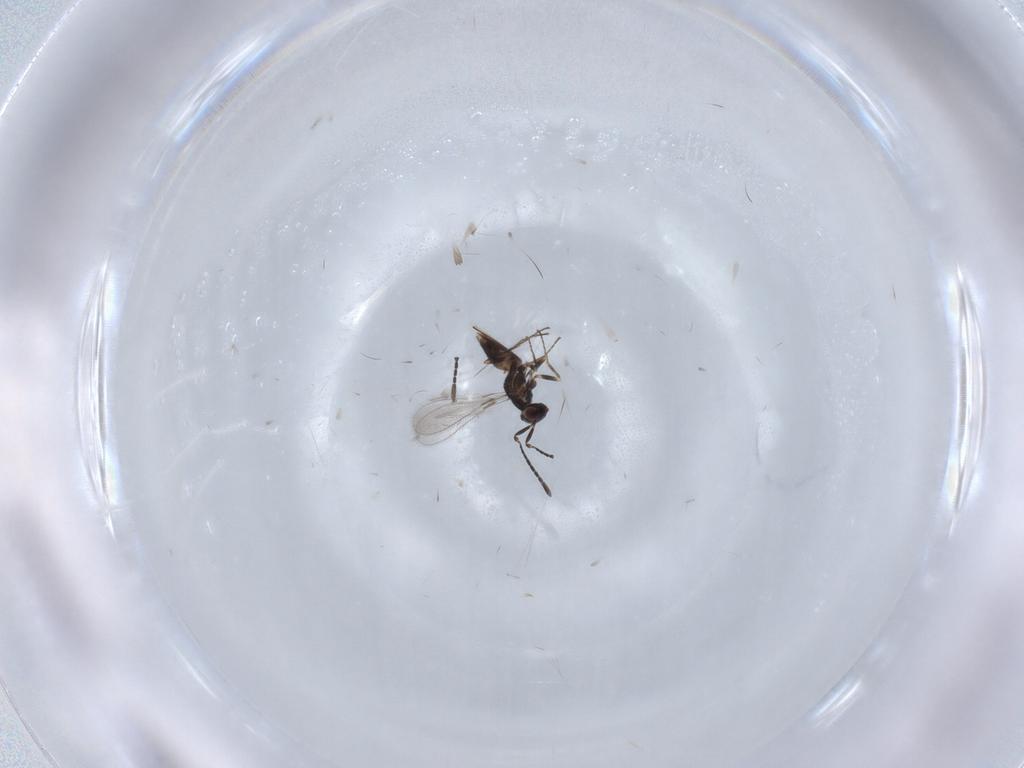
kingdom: Animalia
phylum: Arthropoda
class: Insecta
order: Hymenoptera
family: Mymaridae
